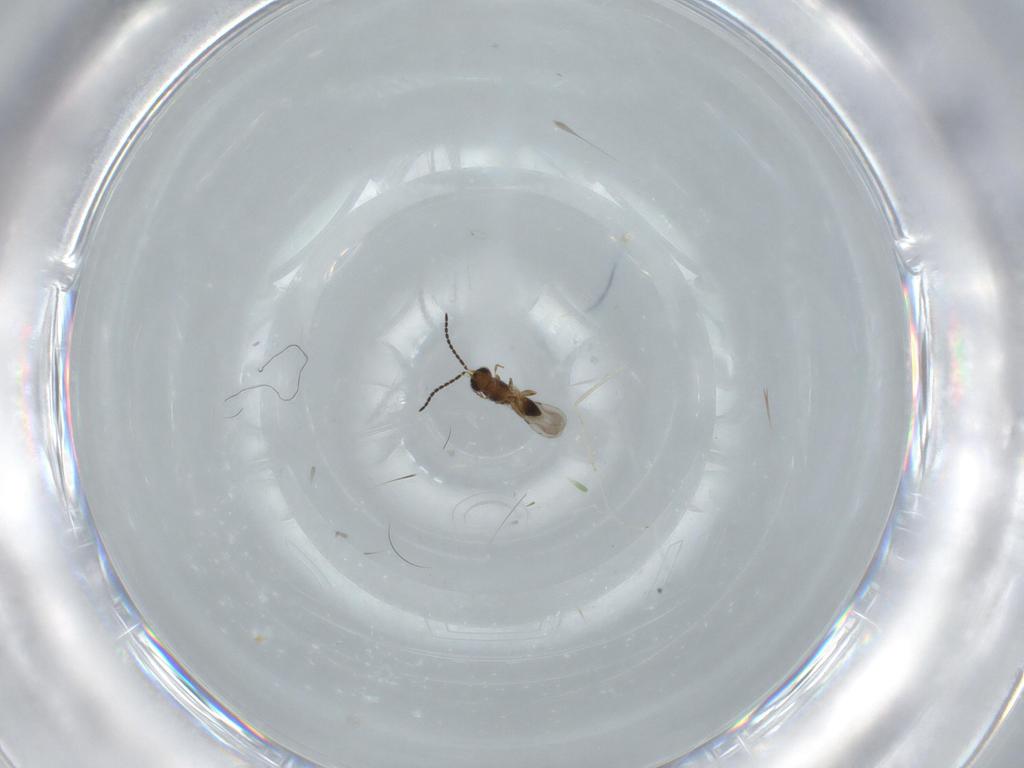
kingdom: Animalia
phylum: Arthropoda
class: Insecta
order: Hymenoptera
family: Ceraphronidae
